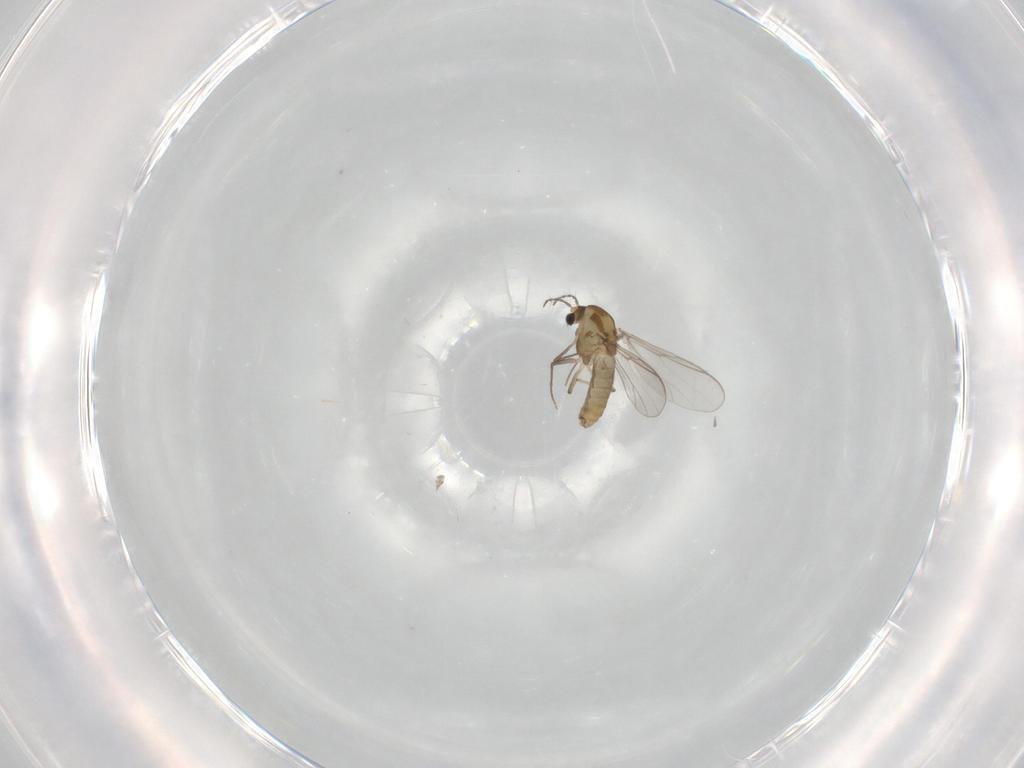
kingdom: Animalia
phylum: Arthropoda
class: Insecta
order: Diptera
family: Chironomidae
